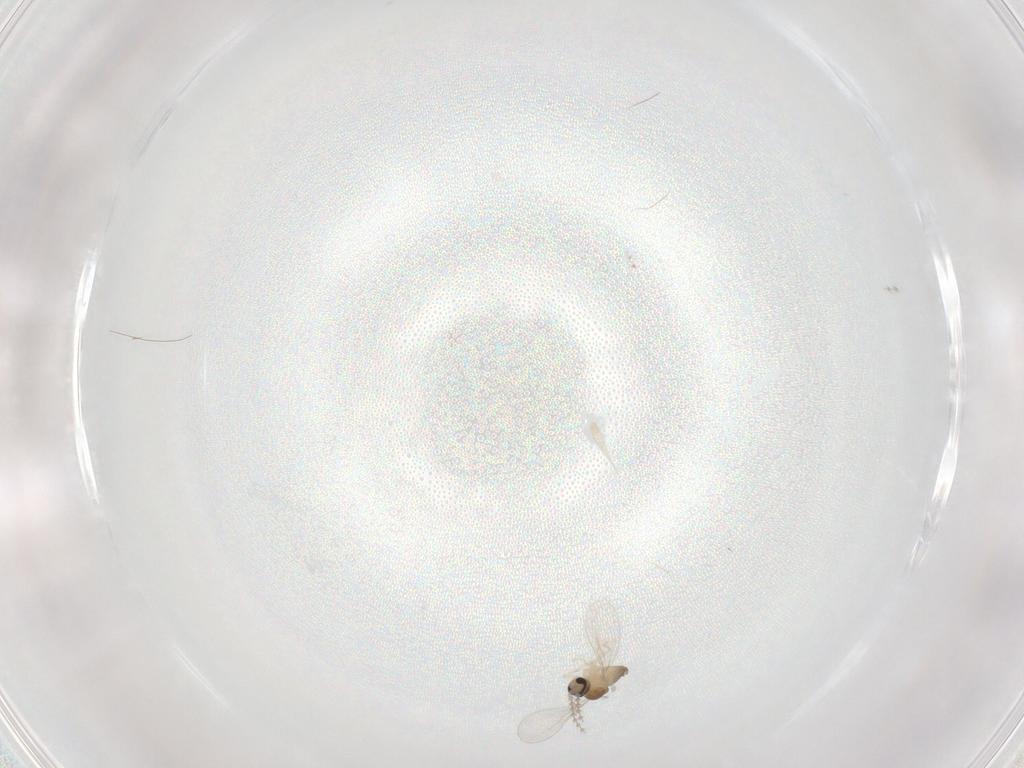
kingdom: Animalia
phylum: Arthropoda
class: Insecta
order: Diptera
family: Cecidomyiidae
